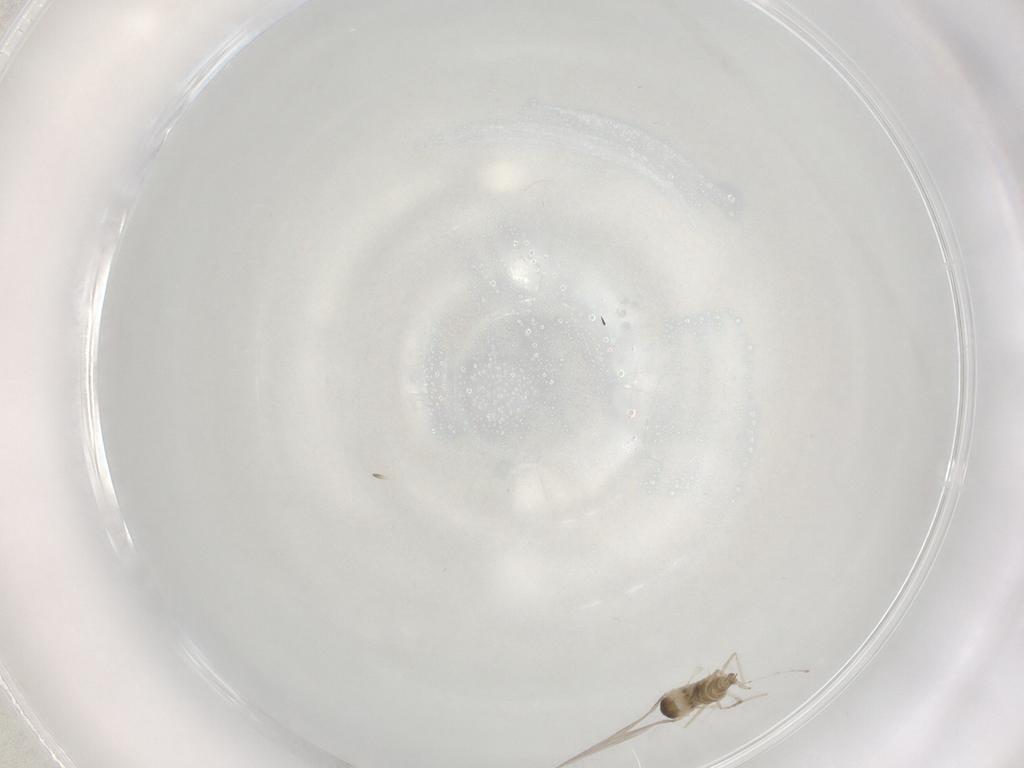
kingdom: Animalia
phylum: Arthropoda
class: Insecta
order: Diptera
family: Cecidomyiidae
